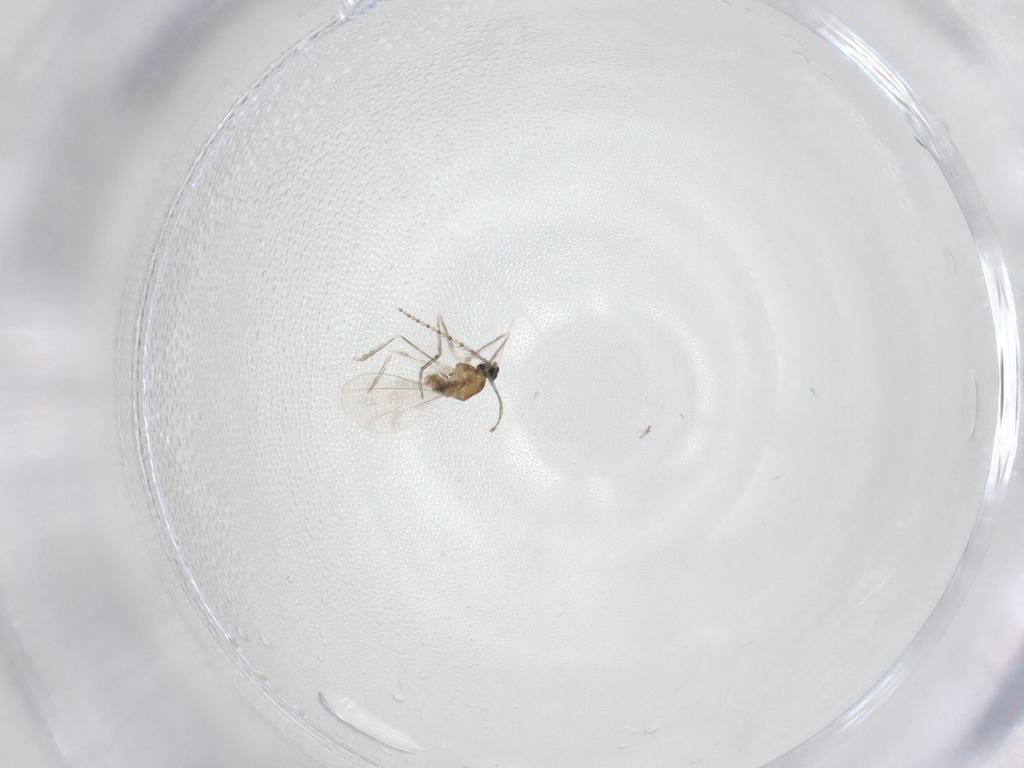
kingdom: Animalia
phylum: Arthropoda
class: Insecta
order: Diptera
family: Cecidomyiidae
